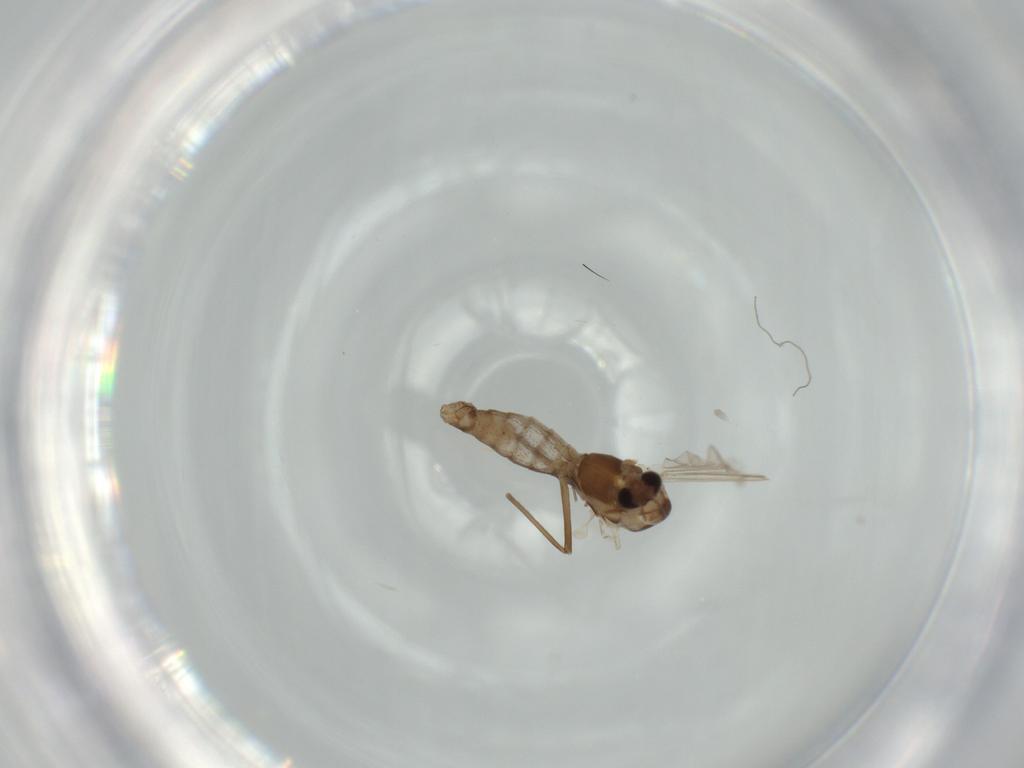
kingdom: Animalia
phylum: Arthropoda
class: Insecta
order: Diptera
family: Chironomidae
